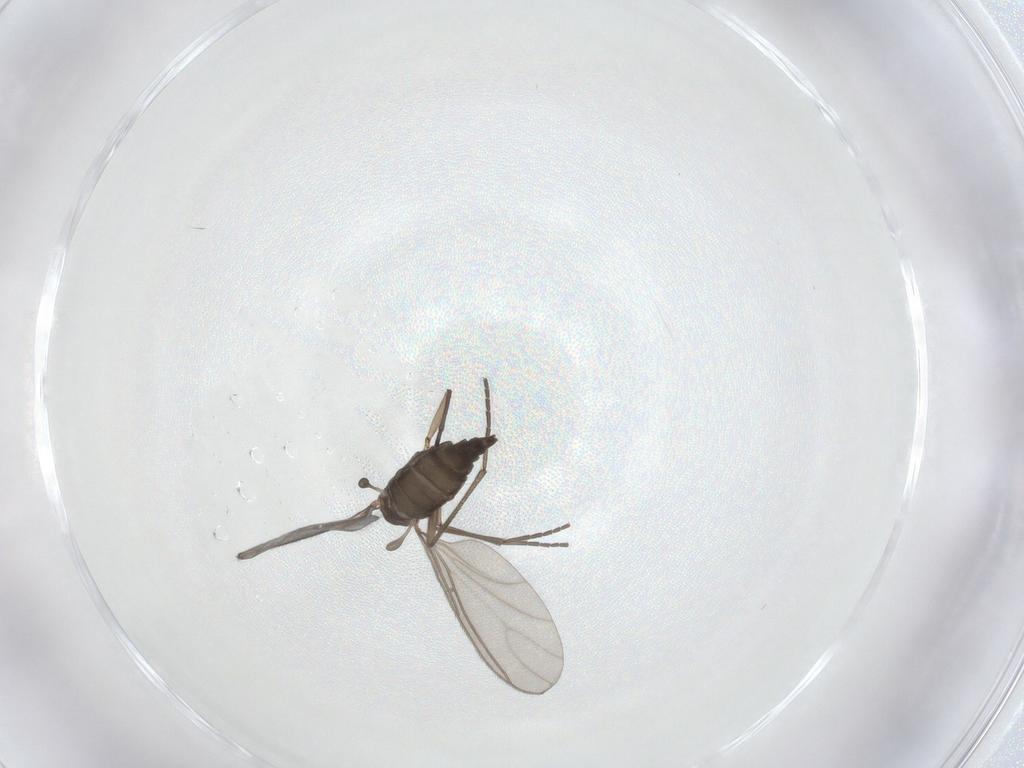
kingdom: Animalia
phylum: Arthropoda
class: Insecta
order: Diptera
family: Sciaridae
